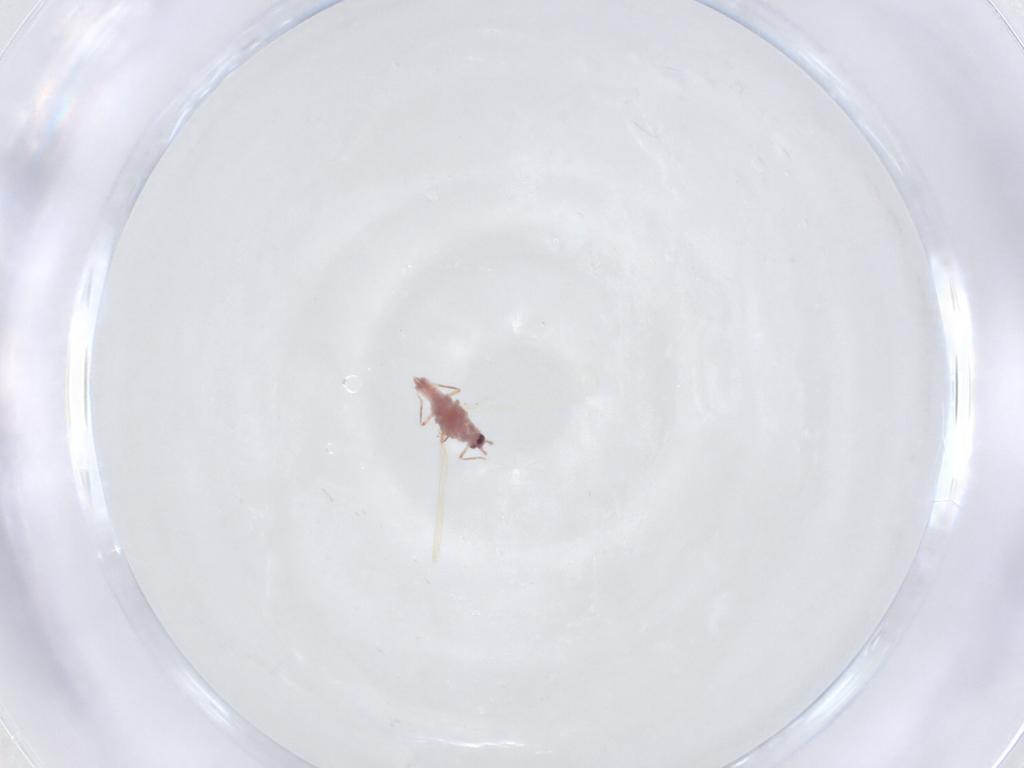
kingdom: Animalia
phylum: Arthropoda
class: Insecta
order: Hemiptera
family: Pseudococcidae
